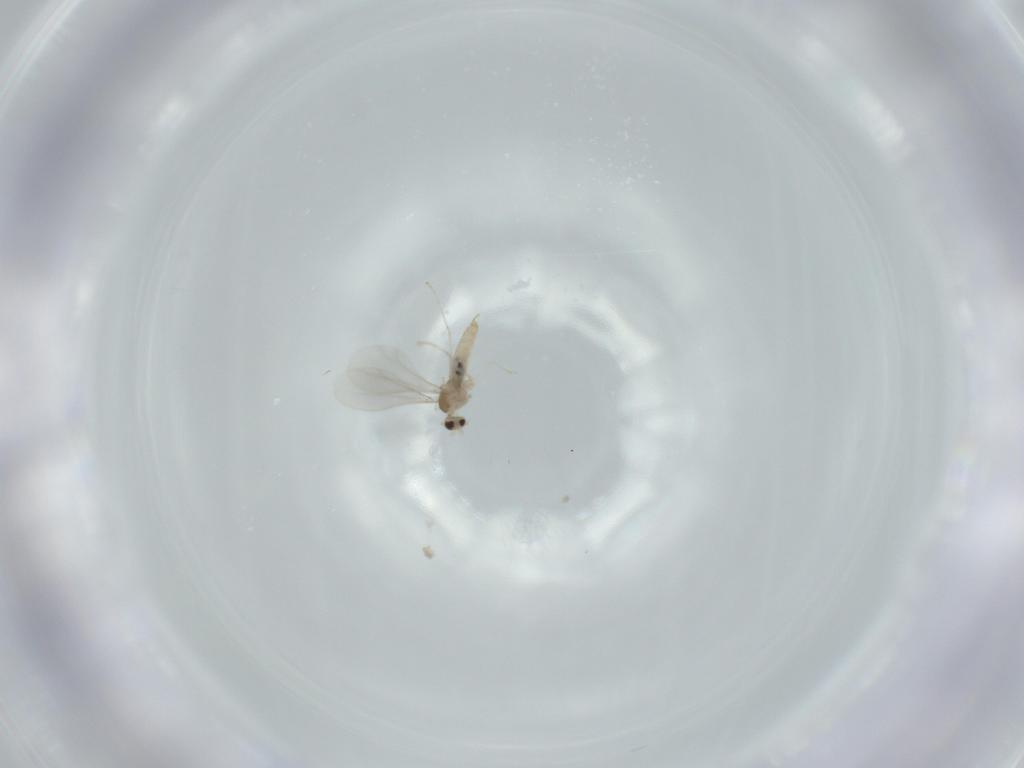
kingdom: Animalia
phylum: Arthropoda
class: Insecta
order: Diptera
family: Cecidomyiidae
